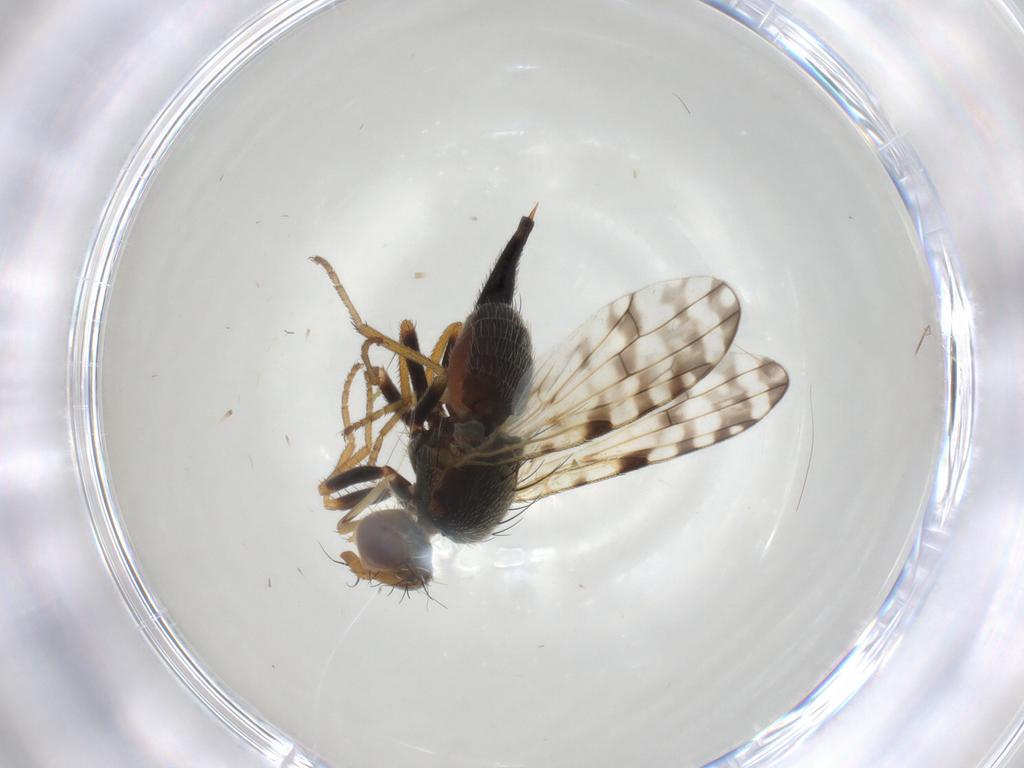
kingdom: Animalia
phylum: Arthropoda
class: Insecta
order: Diptera
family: Tephritidae
